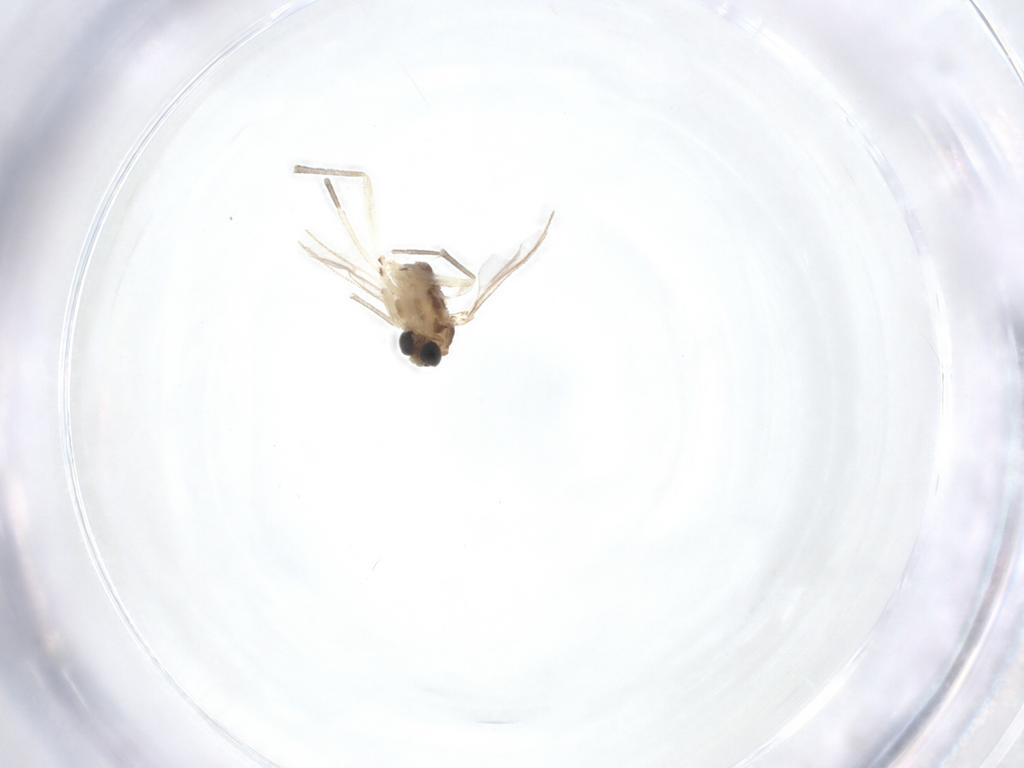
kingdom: Animalia
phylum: Arthropoda
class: Insecta
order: Diptera
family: Sciaridae
